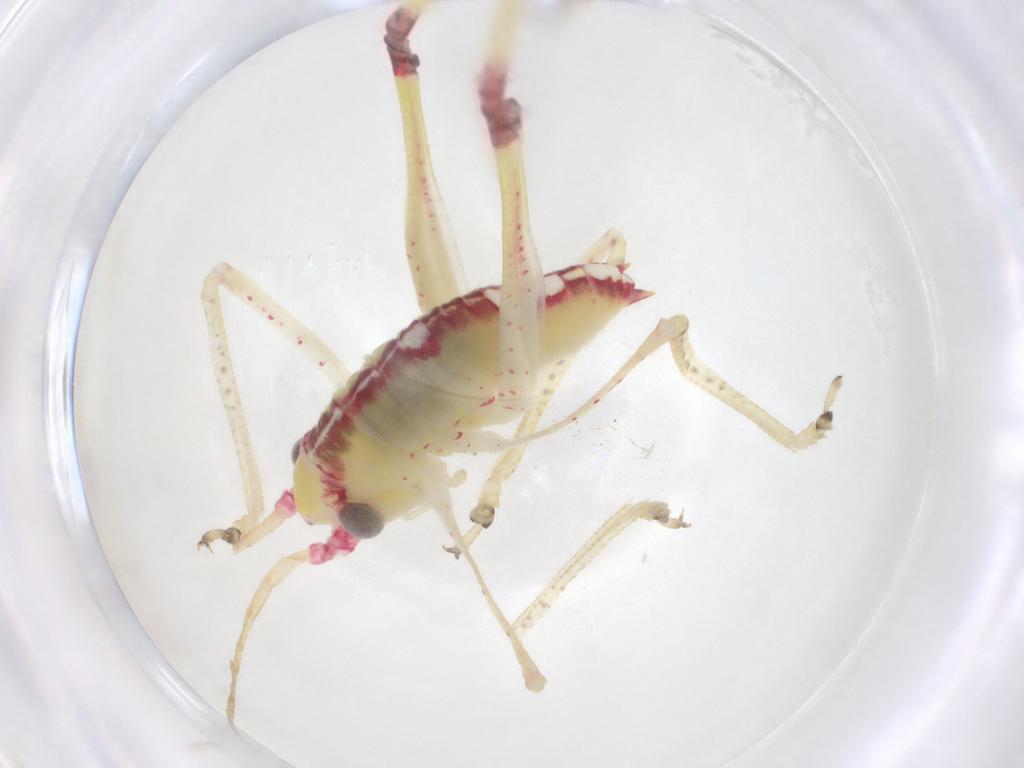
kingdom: Animalia
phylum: Arthropoda
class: Insecta
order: Orthoptera
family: Tettigoniidae
